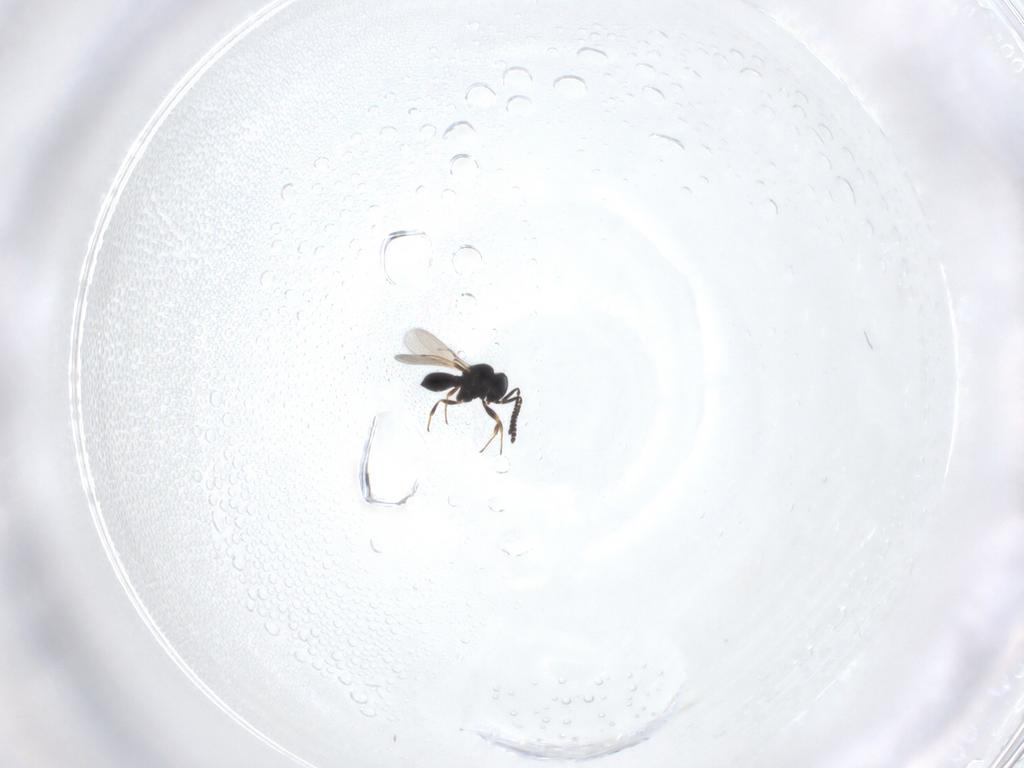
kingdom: Animalia
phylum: Arthropoda
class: Insecta
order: Hymenoptera
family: Scelionidae
